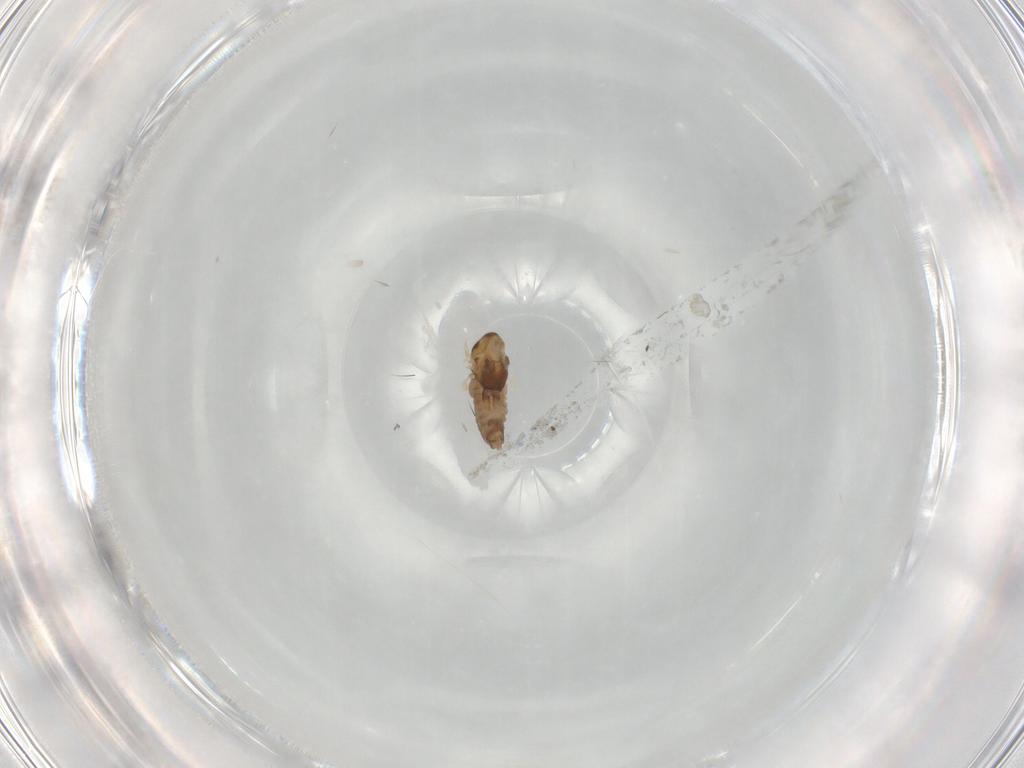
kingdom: Animalia
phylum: Arthropoda
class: Insecta
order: Diptera
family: Chironomidae
